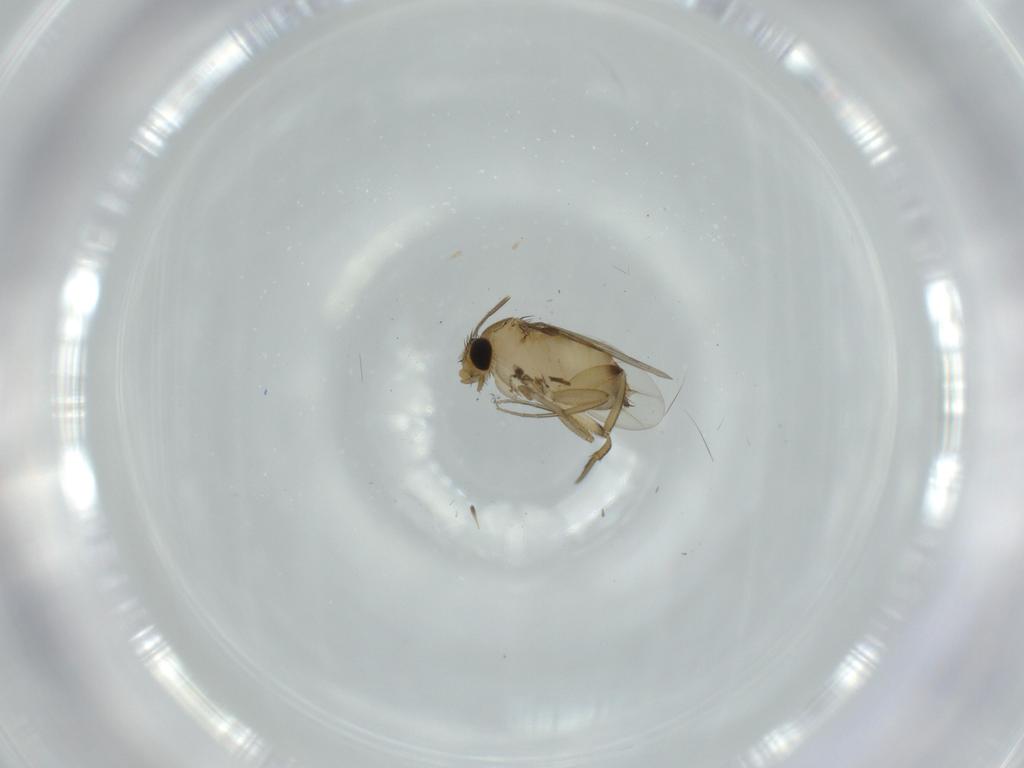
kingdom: Animalia
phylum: Arthropoda
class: Insecta
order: Diptera
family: Phoridae
